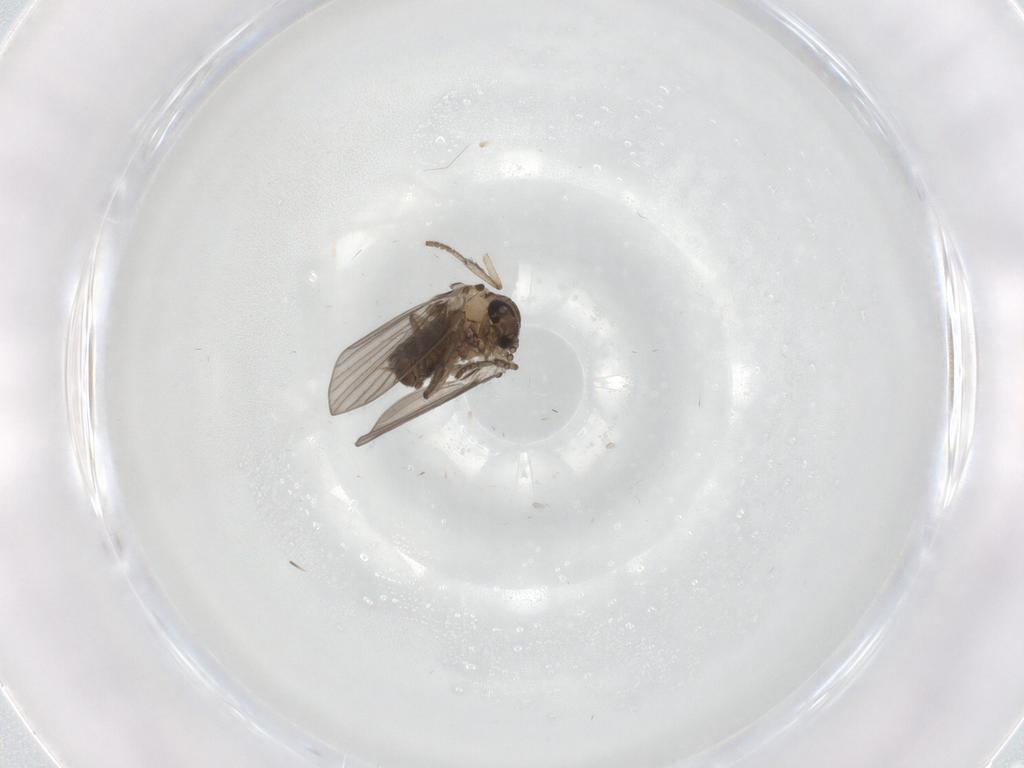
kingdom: Animalia
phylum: Arthropoda
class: Insecta
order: Diptera
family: Psychodidae
